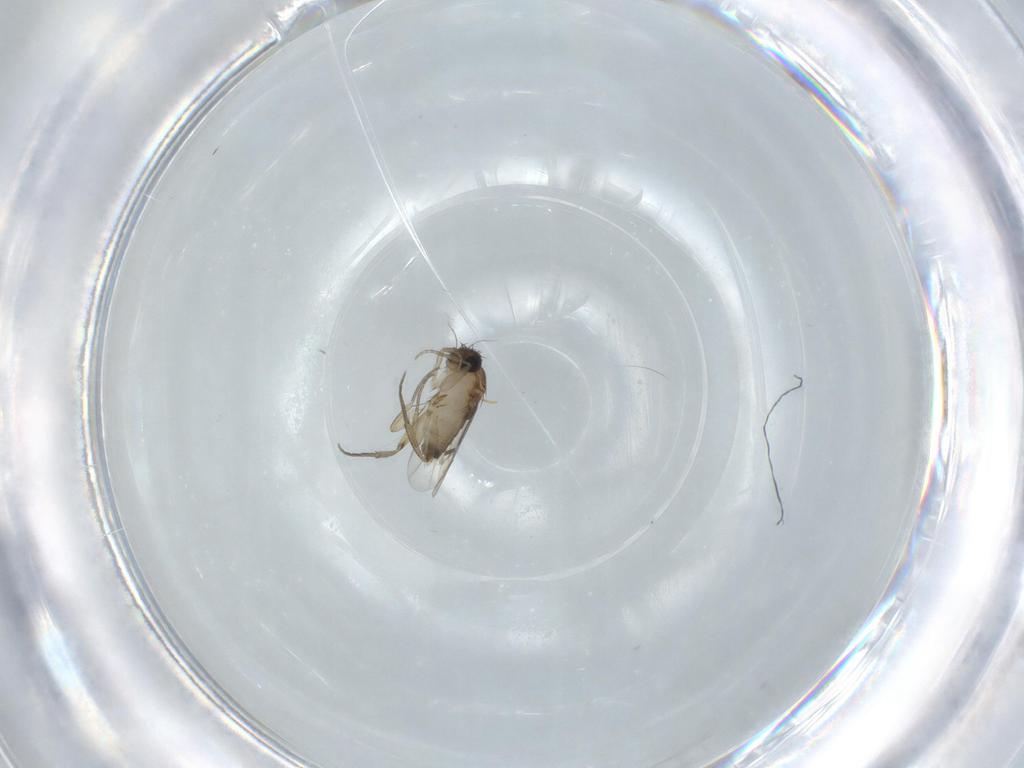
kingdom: Animalia
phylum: Arthropoda
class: Insecta
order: Diptera
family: Phoridae
